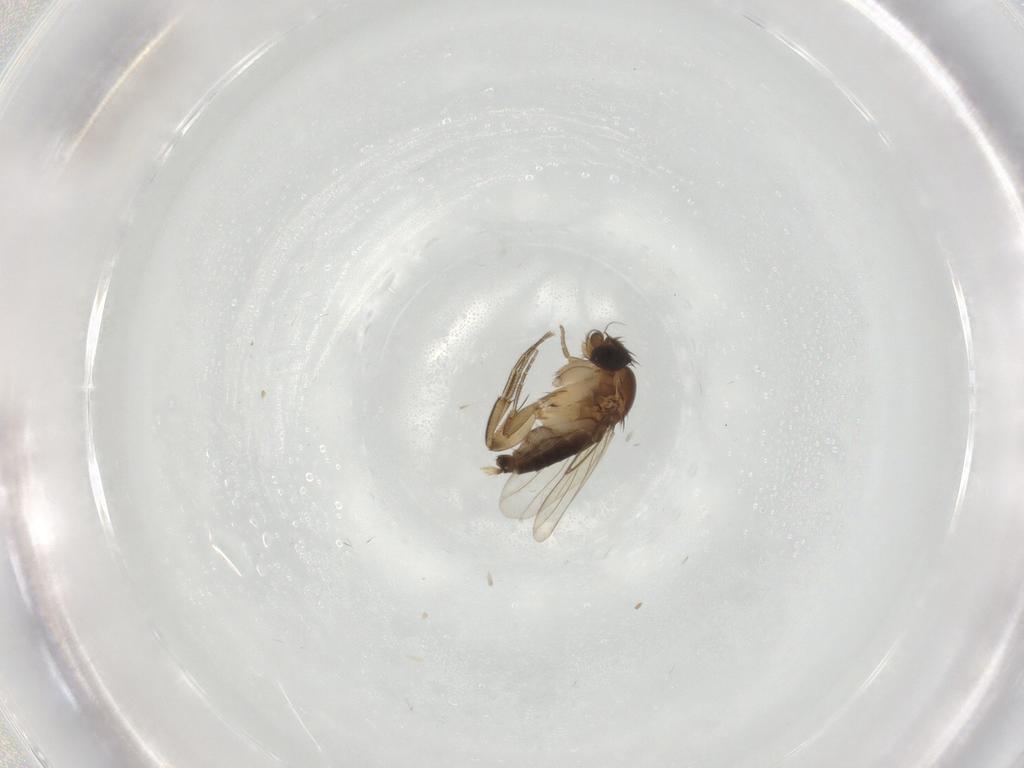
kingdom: Animalia
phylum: Arthropoda
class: Insecta
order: Diptera
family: Phoridae
